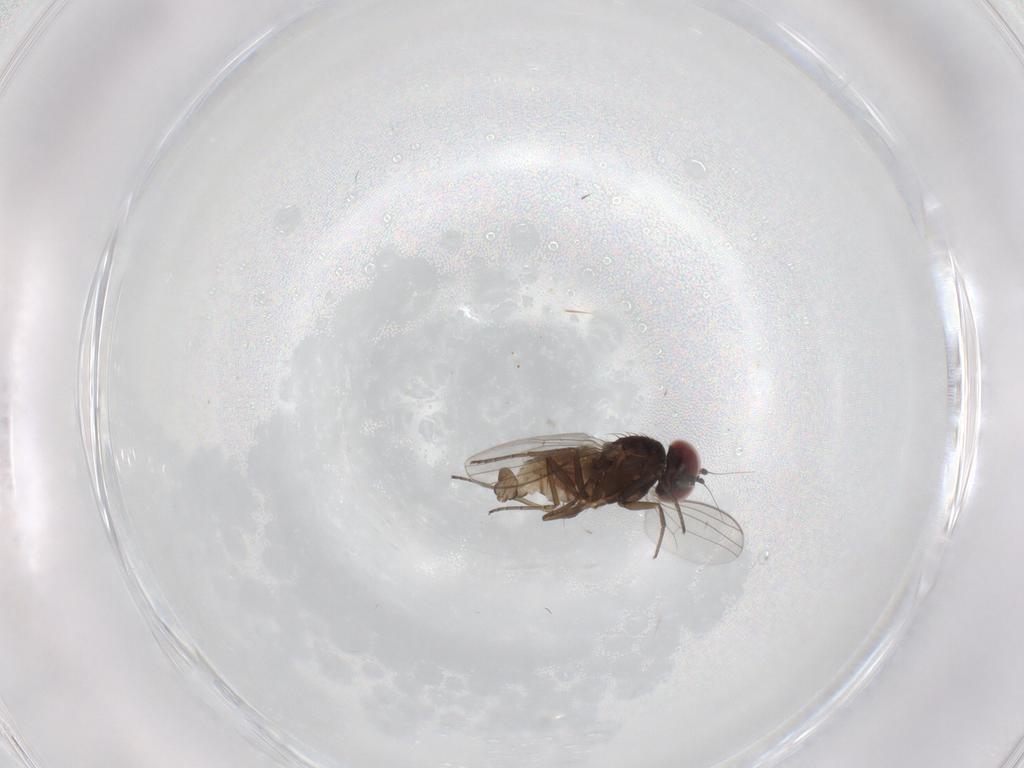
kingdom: Animalia
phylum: Arthropoda
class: Insecta
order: Diptera
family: Dolichopodidae
